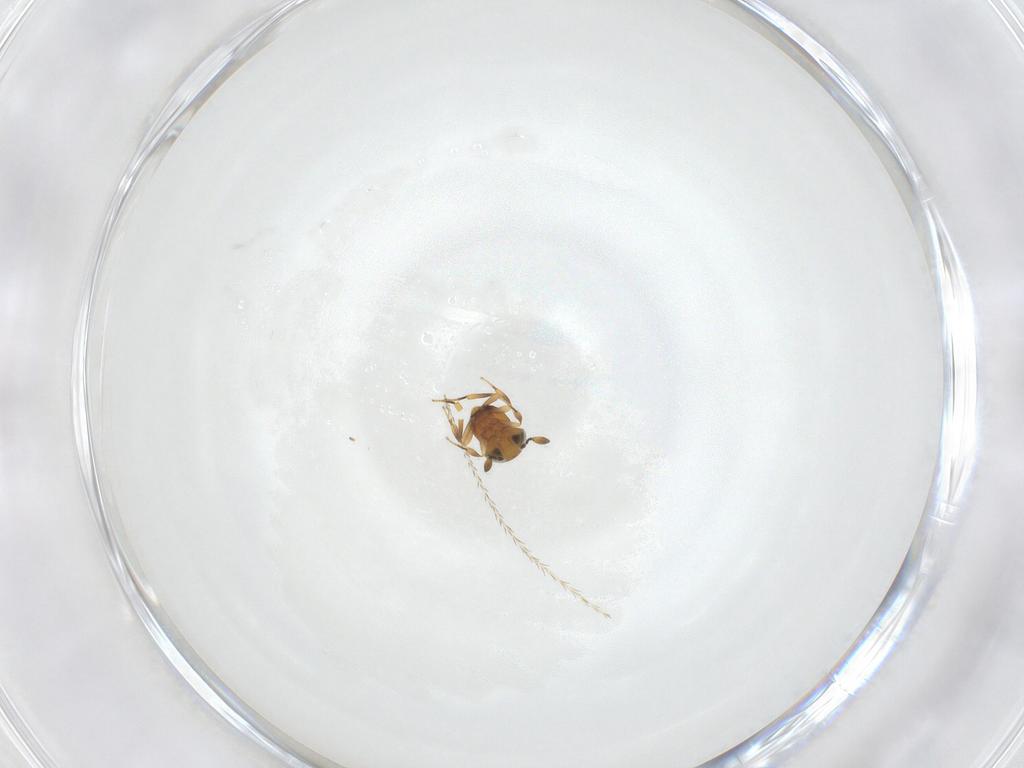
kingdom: Animalia
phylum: Arthropoda
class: Insecta
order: Hymenoptera
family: Scelionidae
